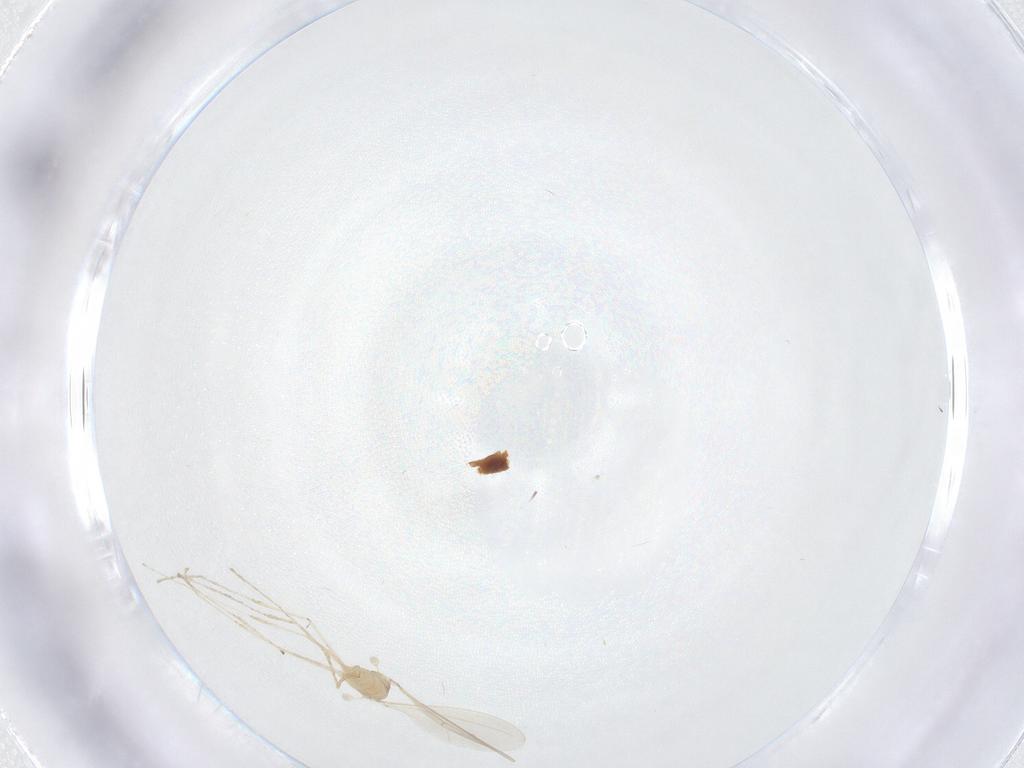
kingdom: Animalia
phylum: Arthropoda
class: Insecta
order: Diptera
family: Cecidomyiidae
